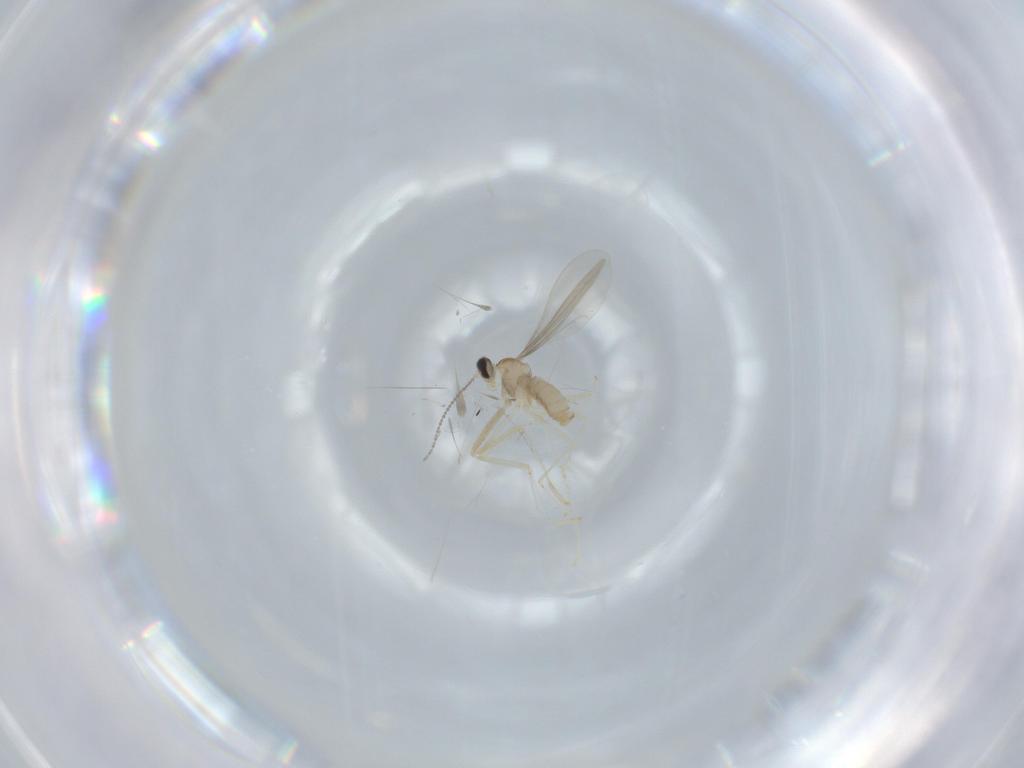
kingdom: Animalia
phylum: Arthropoda
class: Insecta
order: Diptera
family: Cecidomyiidae
